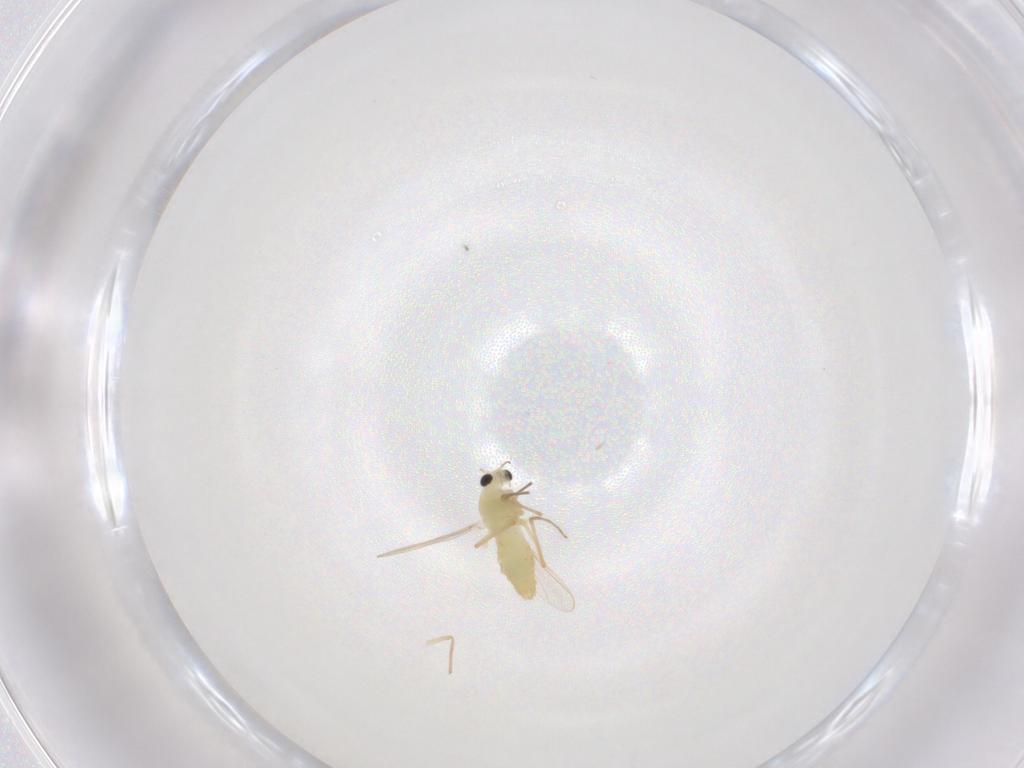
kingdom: Animalia
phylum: Arthropoda
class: Insecta
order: Diptera
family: Chironomidae
